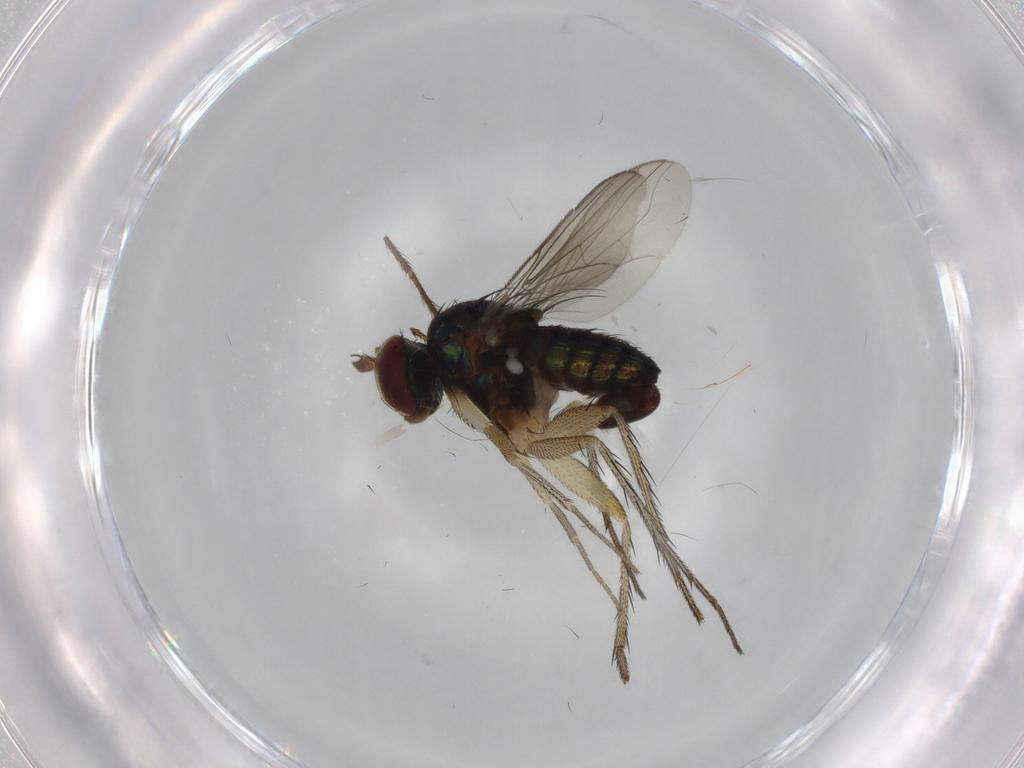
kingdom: Animalia
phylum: Arthropoda
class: Insecta
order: Diptera
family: Dolichopodidae
